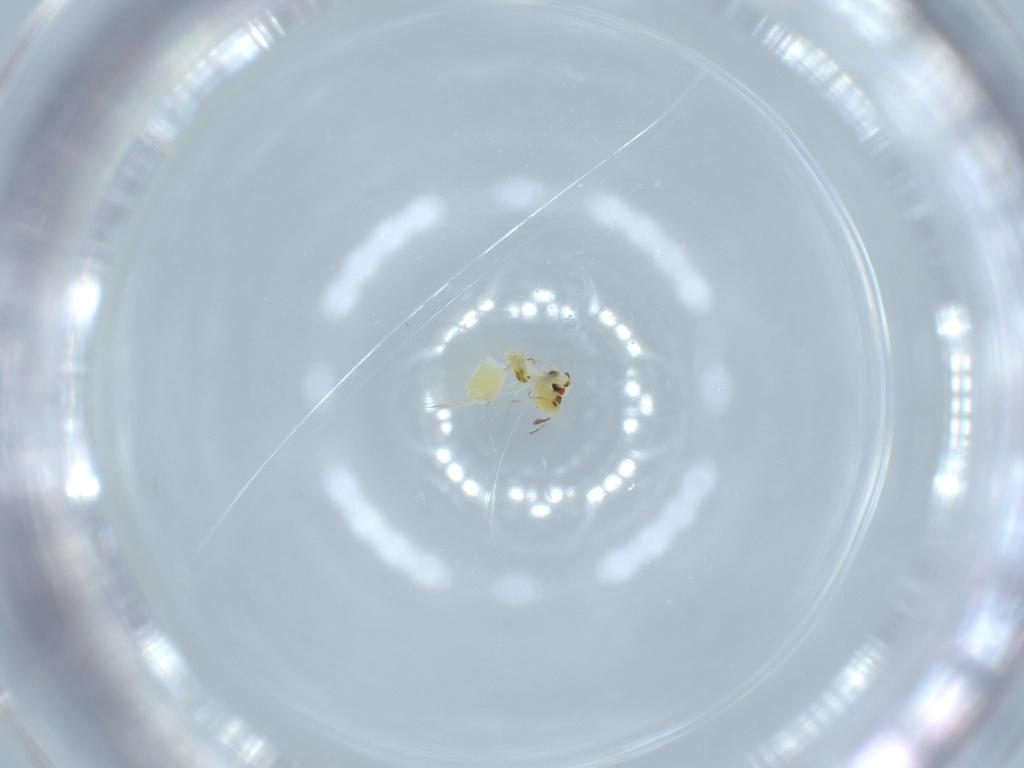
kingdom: Animalia
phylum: Arthropoda
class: Insecta
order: Hemiptera
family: Aleyrodidae
